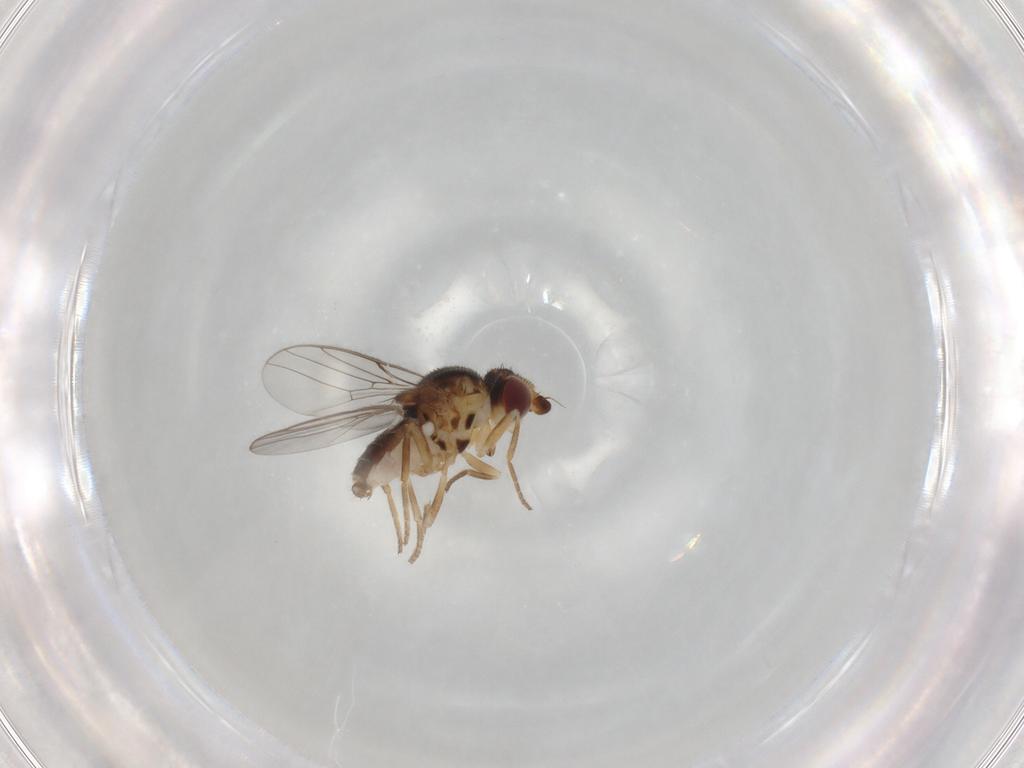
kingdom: Animalia
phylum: Arthropoda
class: Insecta
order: Diptera
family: Chloropidae
